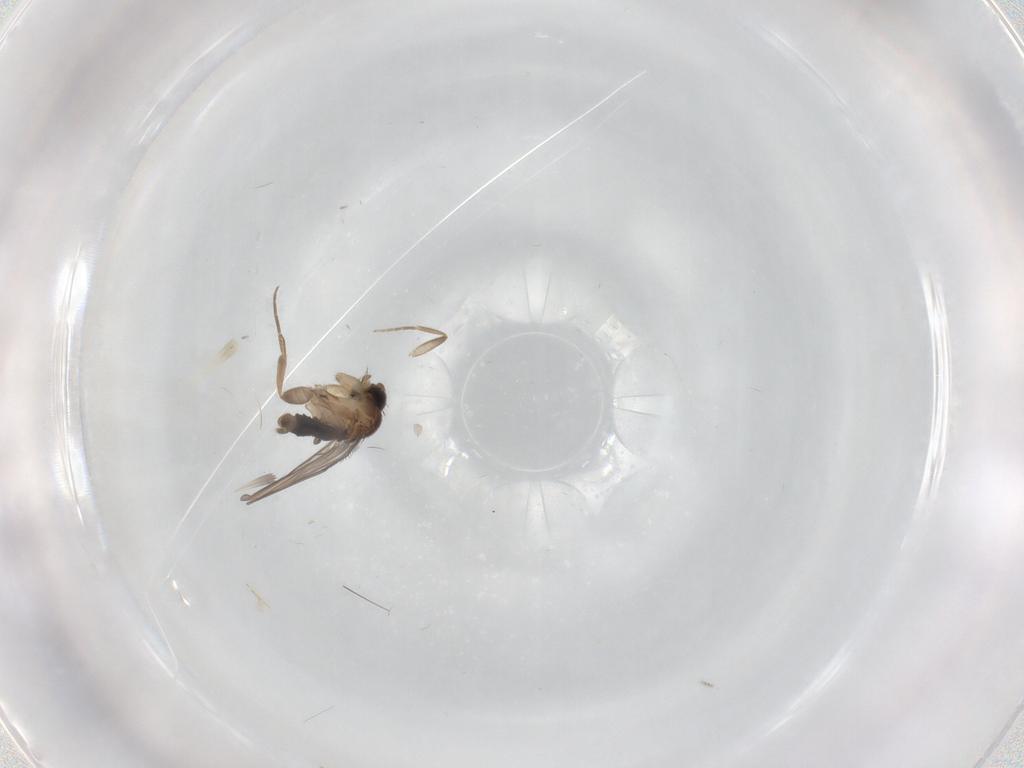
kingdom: Animalia
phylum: Arthropoda
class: Insecta
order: Diptera
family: Phoridae
